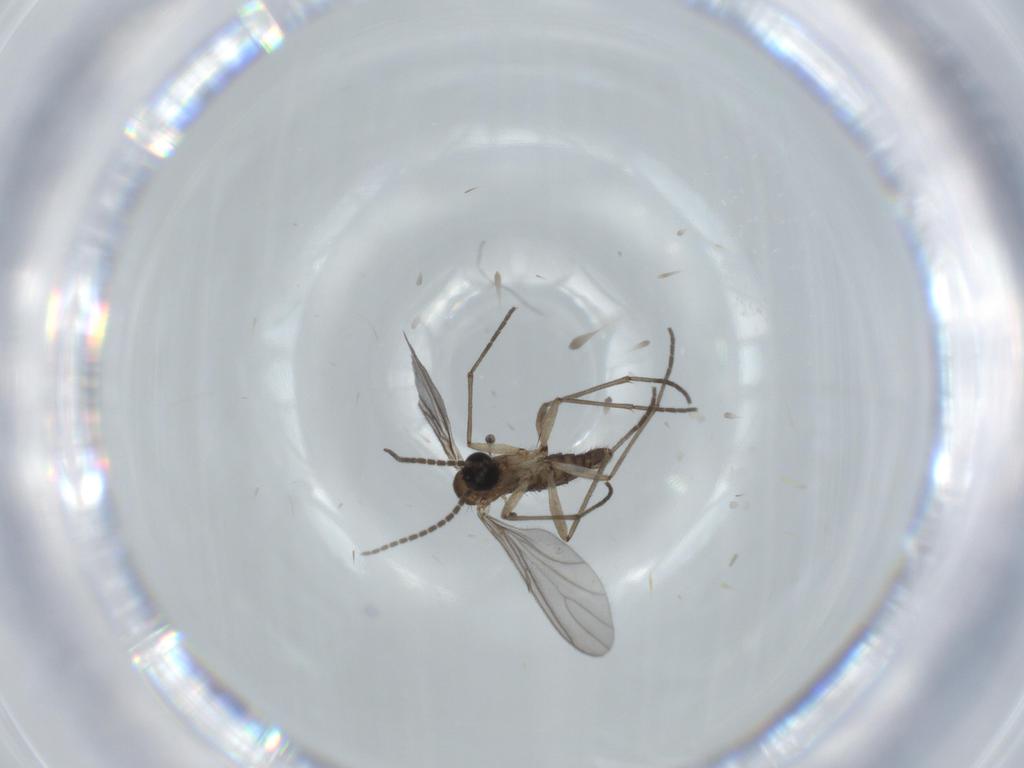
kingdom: Animalia
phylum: Arthropoda
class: Insecta
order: Diptera
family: Sciaridae
